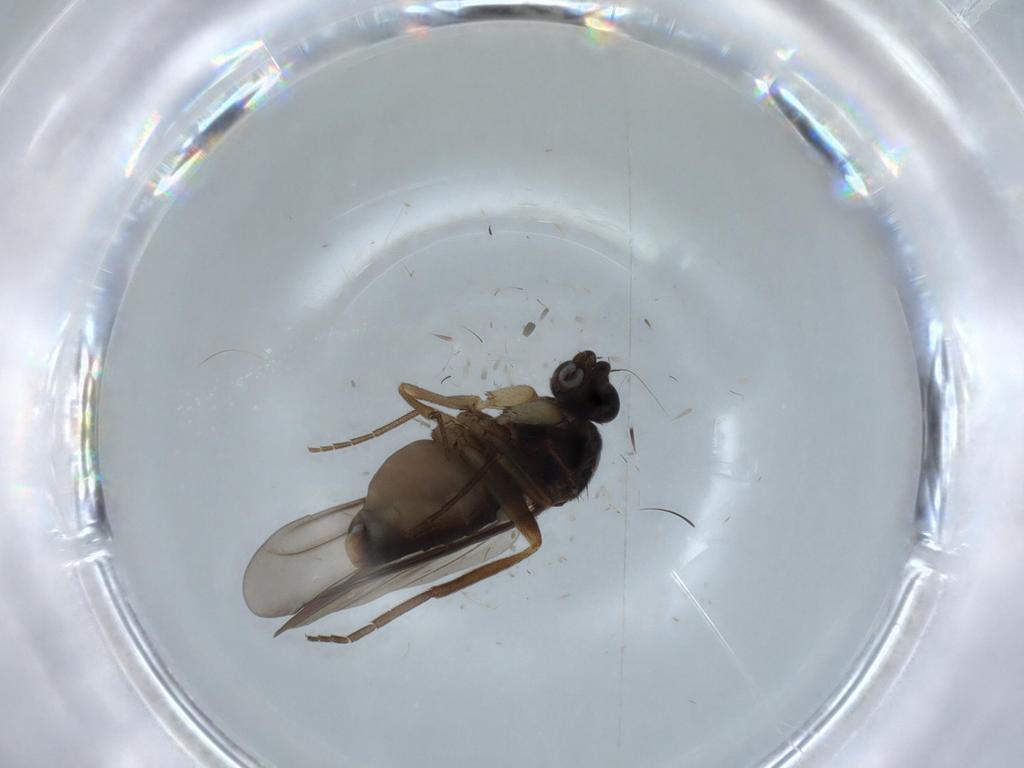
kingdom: Animalia
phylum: Arthropoda
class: Insecta
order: Diptera
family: Phoridae
